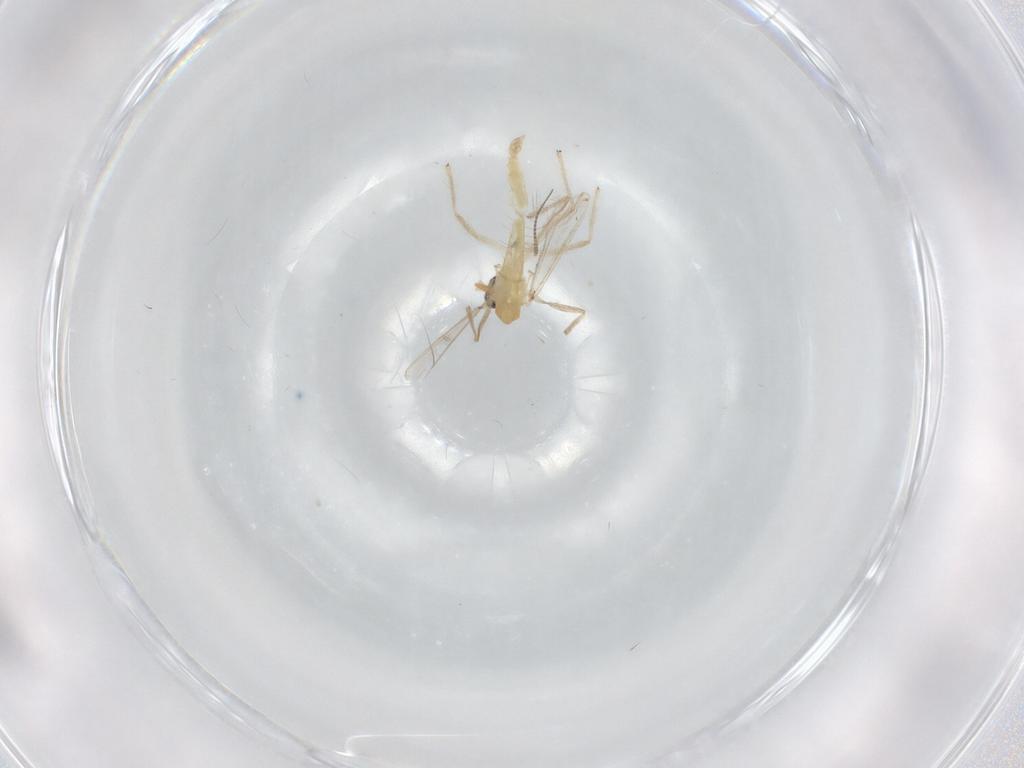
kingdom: Animalia
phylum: Arthropoda
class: Insecta
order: Diptera
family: Chironomidae
